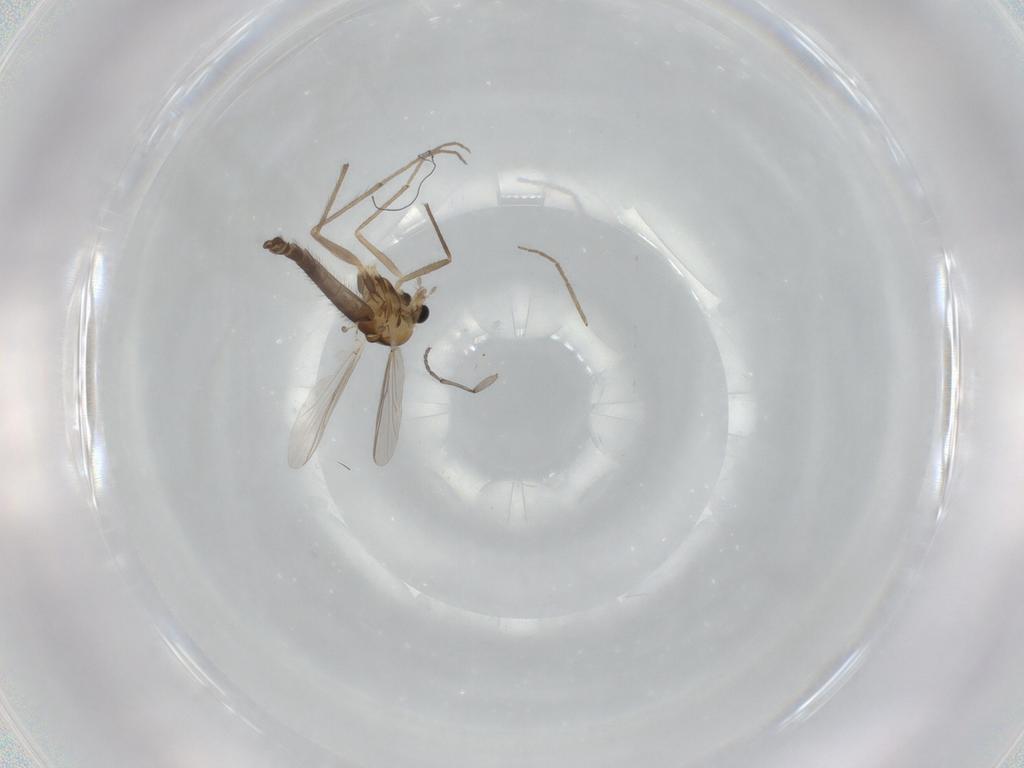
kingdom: Animalia
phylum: Arthropoda
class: Insecta
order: Diptera
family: Chironomidae
